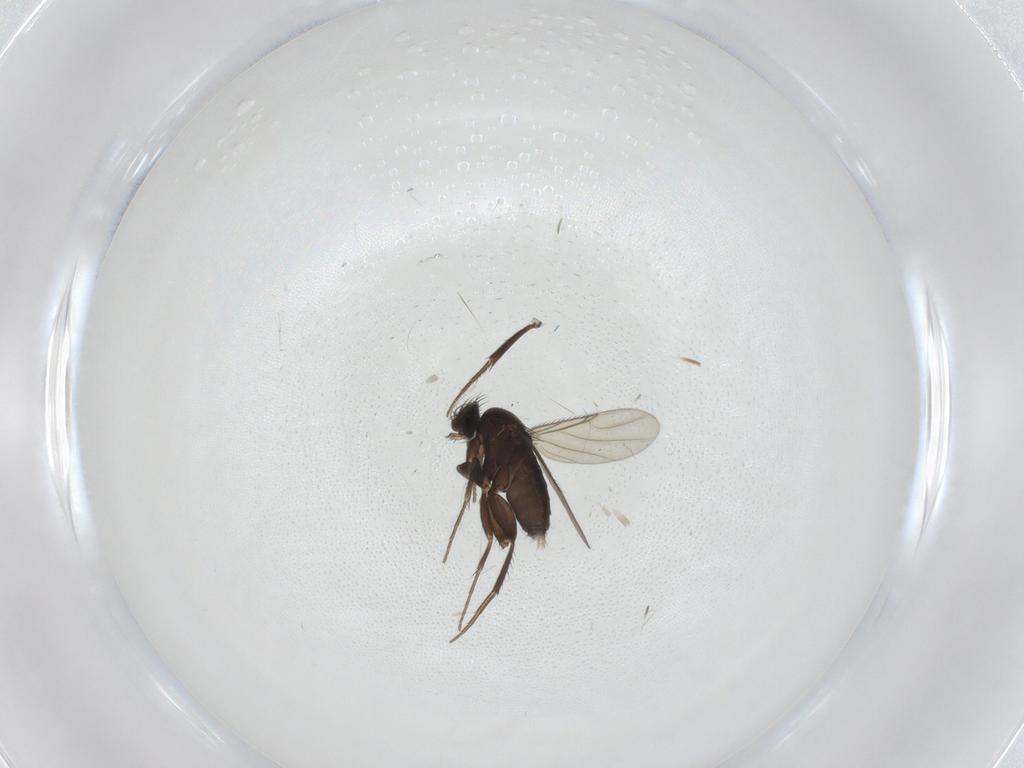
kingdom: Animalia
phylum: Arthropoda
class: Insecta
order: Diptera
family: Phoridae
